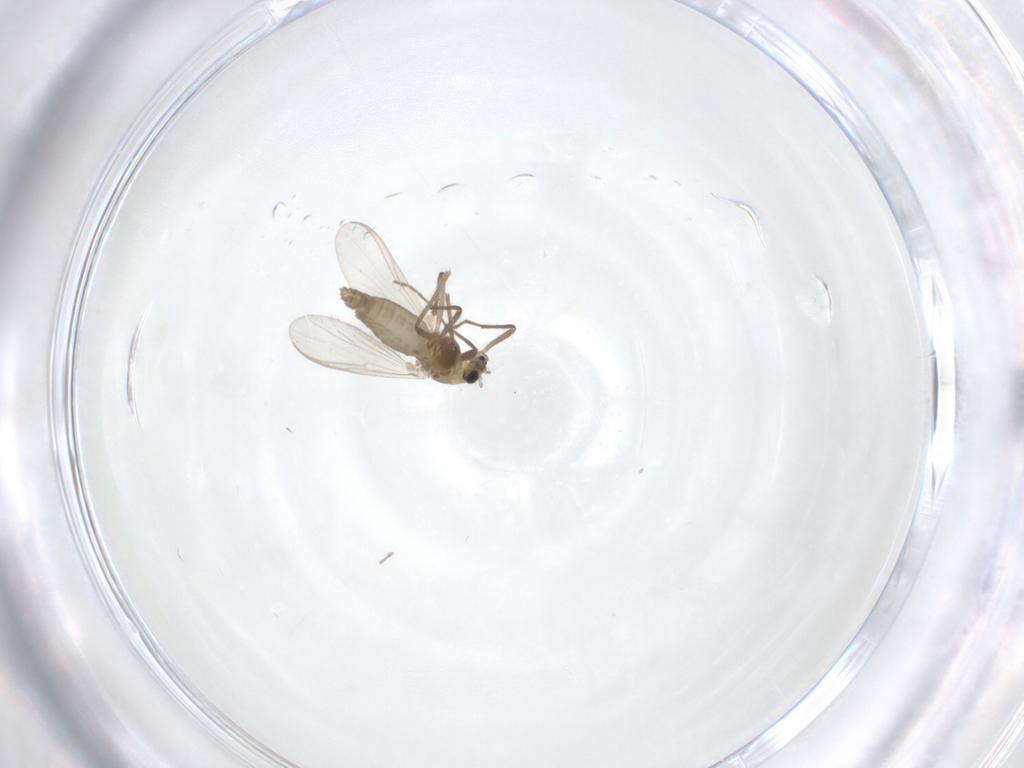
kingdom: Animalia
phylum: Arthropoda
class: Insecta
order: Diptera
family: Chironomidae
